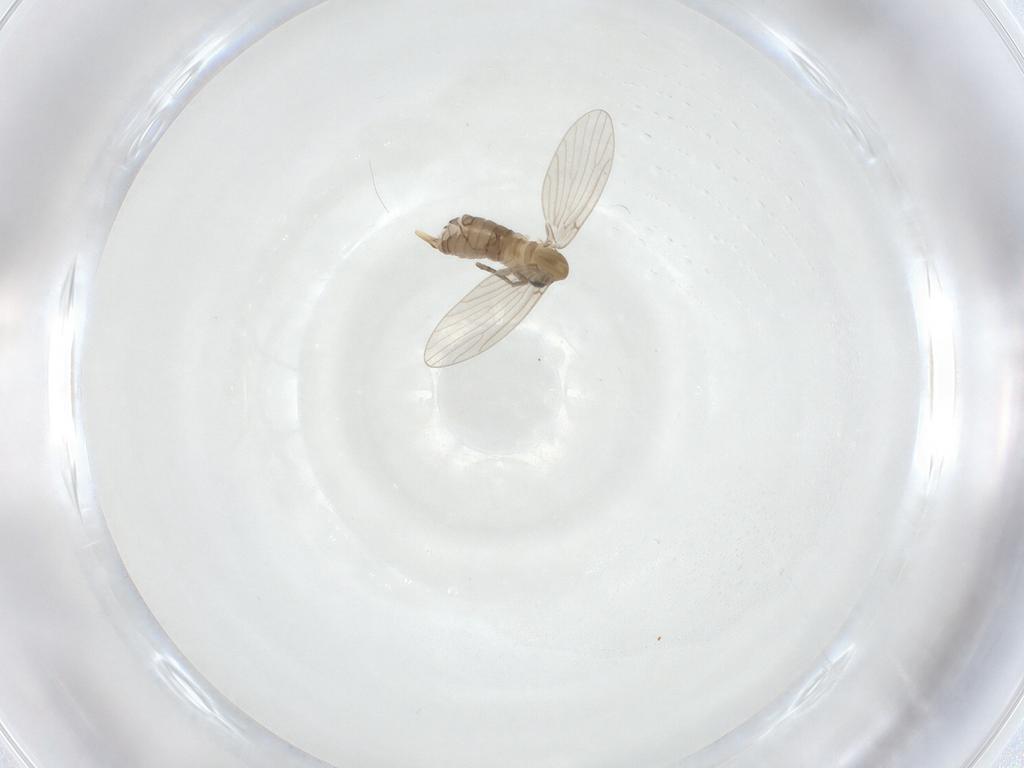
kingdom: Animalia
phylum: Arthropoda
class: Insecta
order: Diptera
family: Psychodidae
